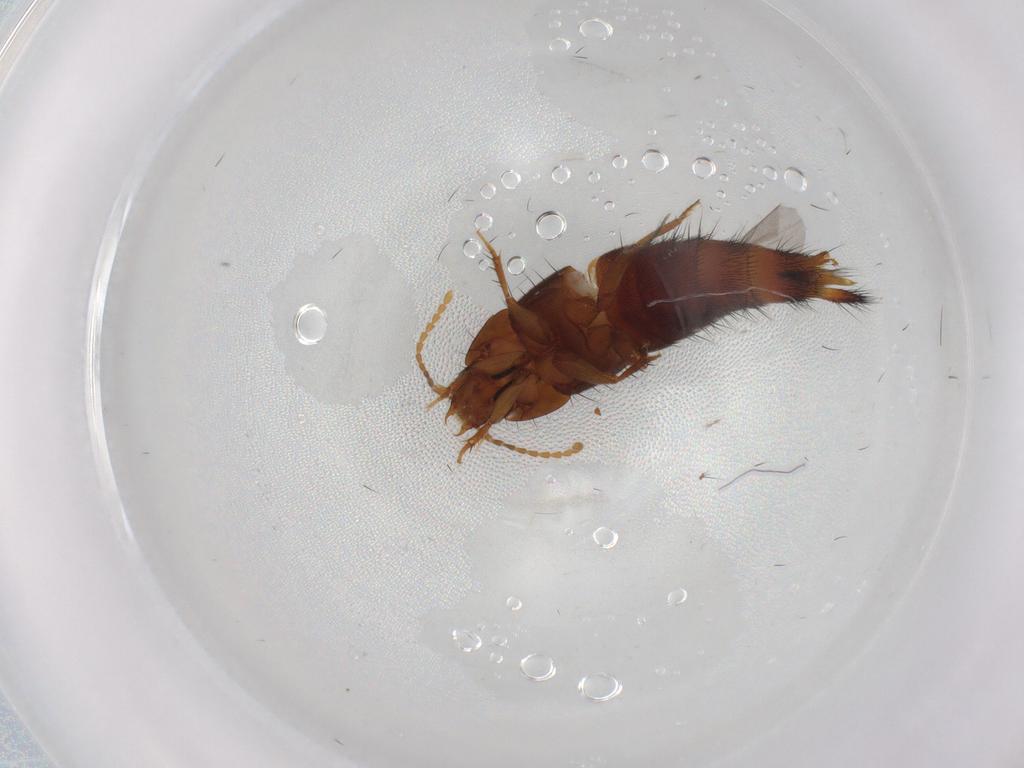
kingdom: Animalia
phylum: Arthropoda
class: Insecta
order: Coleoptera
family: Staphylinidae
